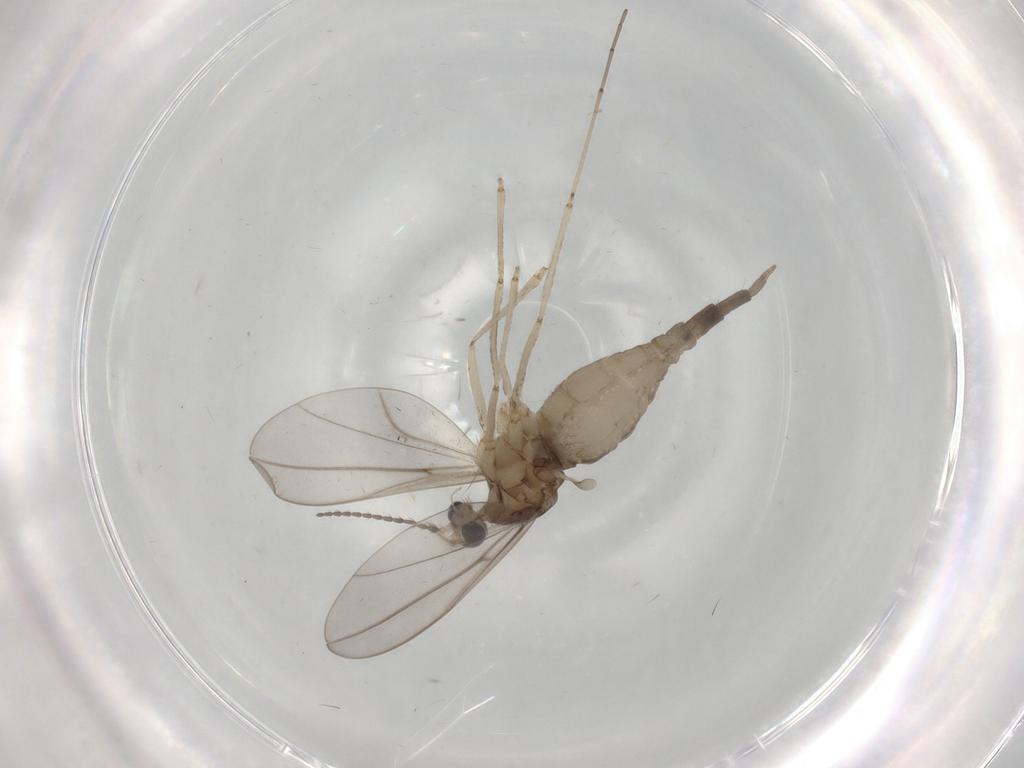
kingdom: Animalia
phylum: Arthropoda
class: Insecta
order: Diptera
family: Cecidomyiidae
